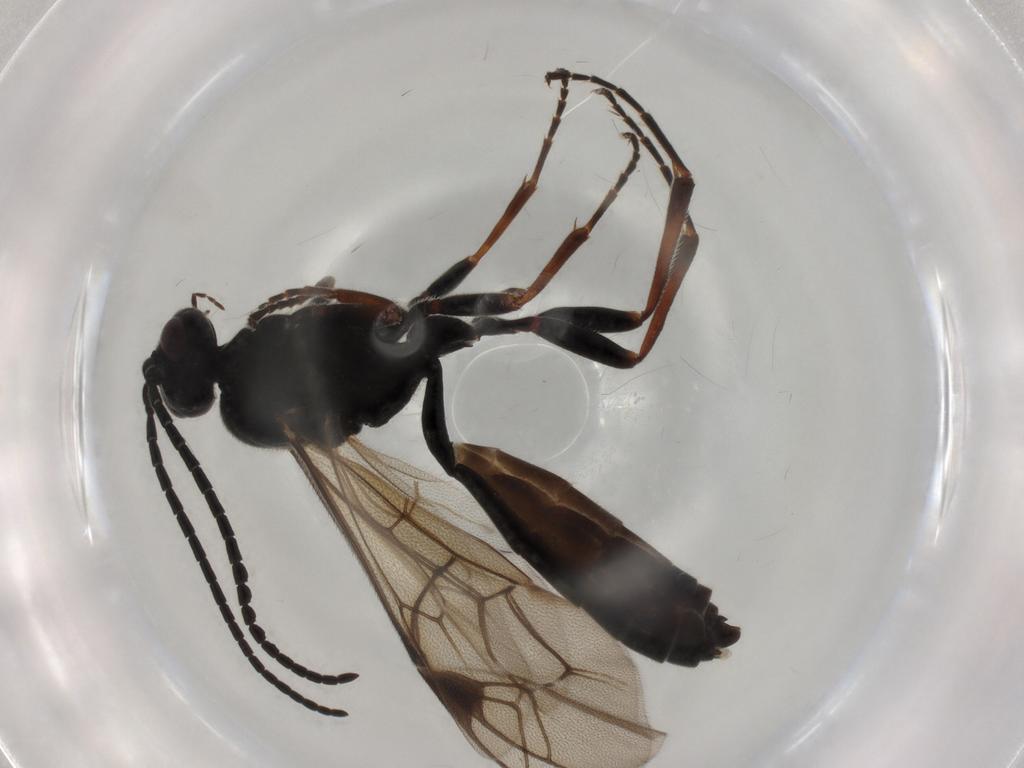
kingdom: Animalia
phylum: Arthropoda
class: Insecta
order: Hymenoptera
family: Ichneumonidae
